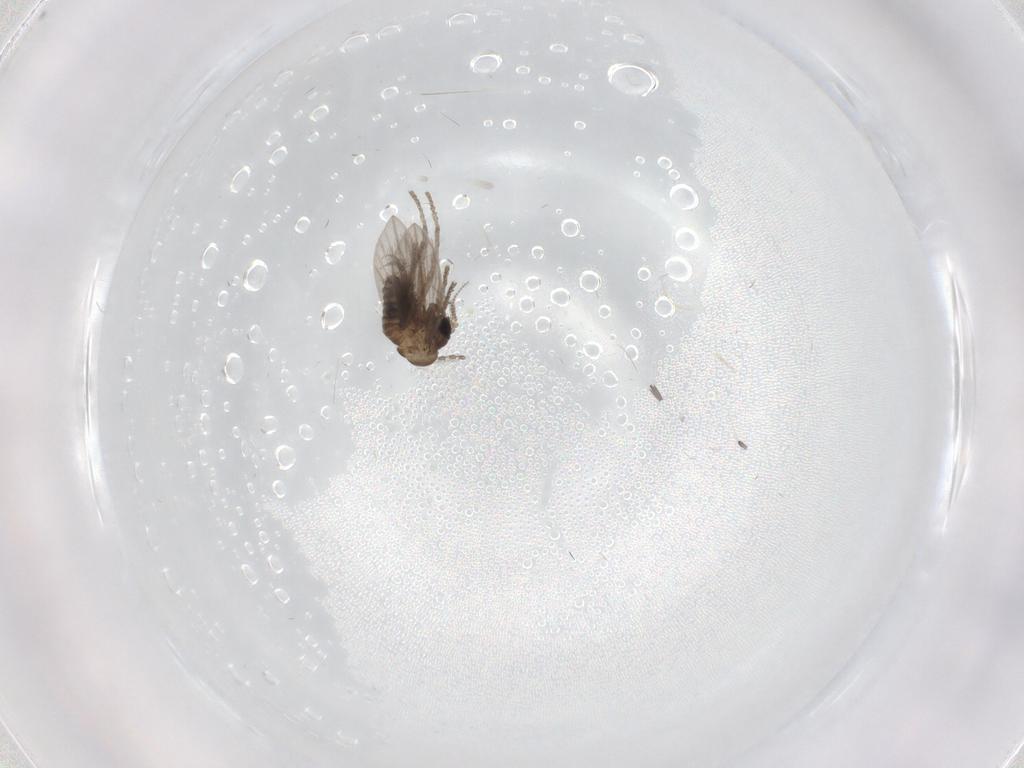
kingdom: Animalia
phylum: Arthropoda
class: Insecta
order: Diptera
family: Psychodidae
